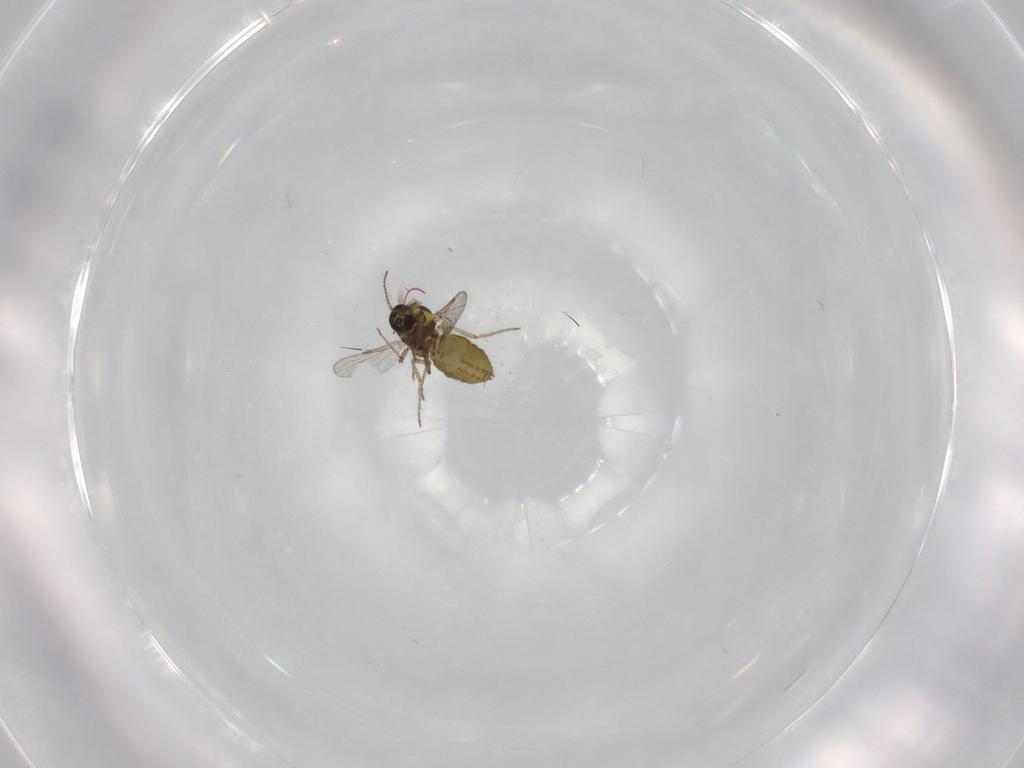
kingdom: Animalia
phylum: Arthropoda
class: Insecta
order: Diptera
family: Ceratopogonidae
